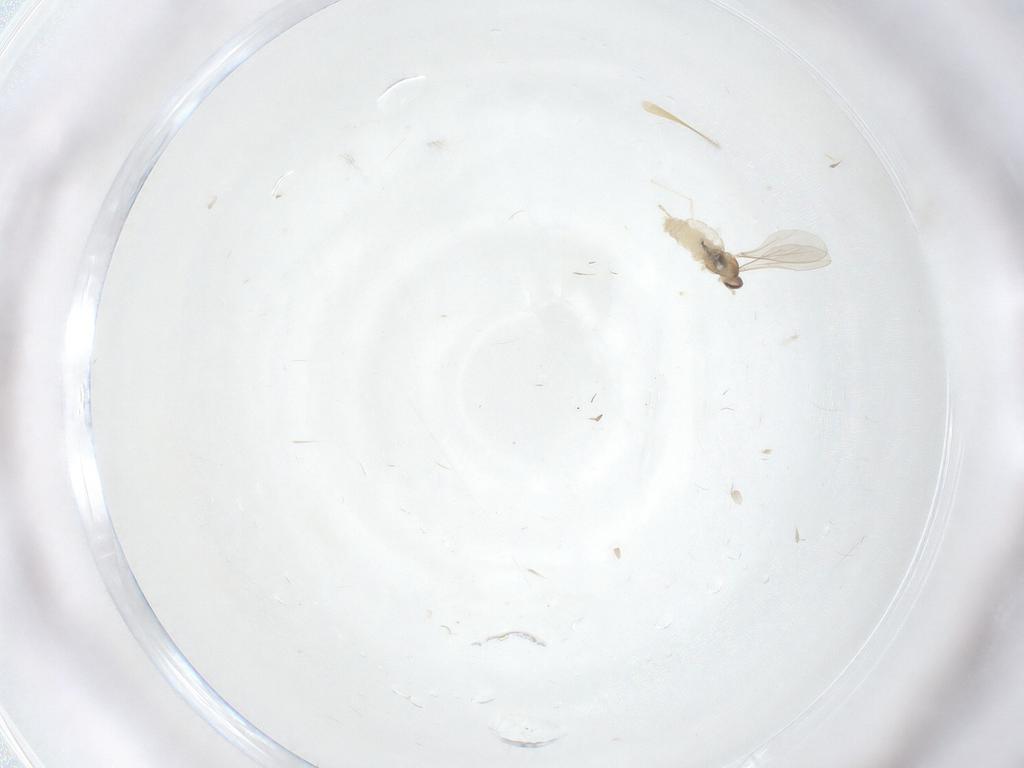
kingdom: Animalia
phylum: Arthropoda
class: Insecta
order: Diptera
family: Cecidomyiidae
